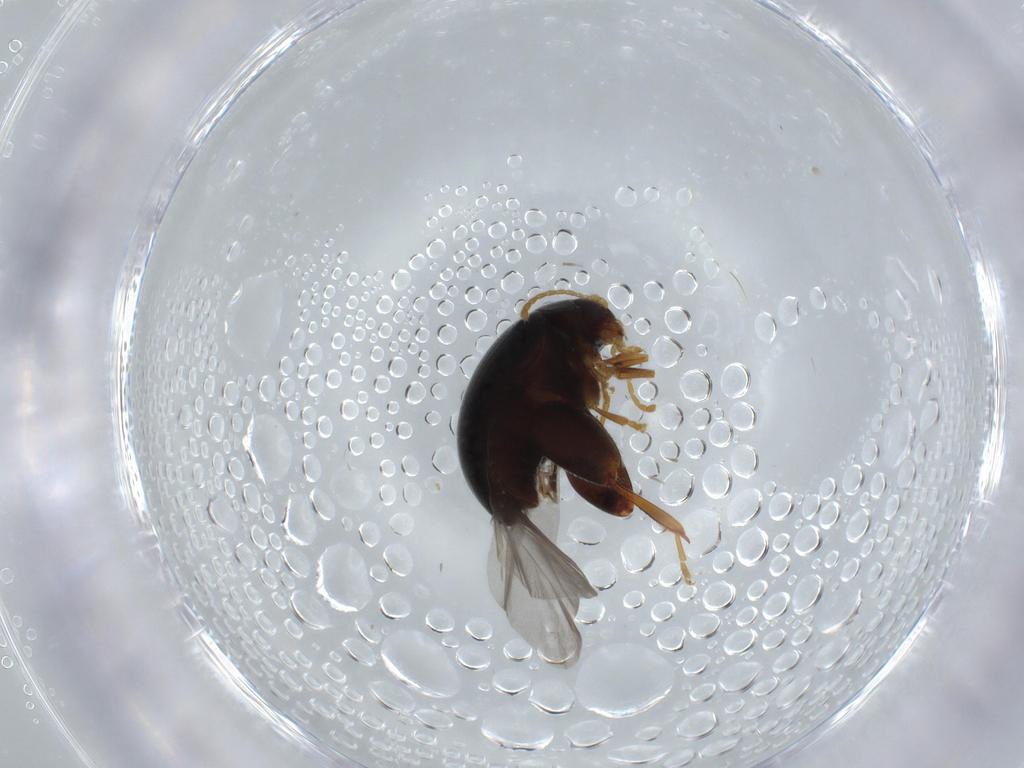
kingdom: Animalia
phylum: Arthropoda
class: Insecta
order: Coleoptera
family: Chrysomelidae
